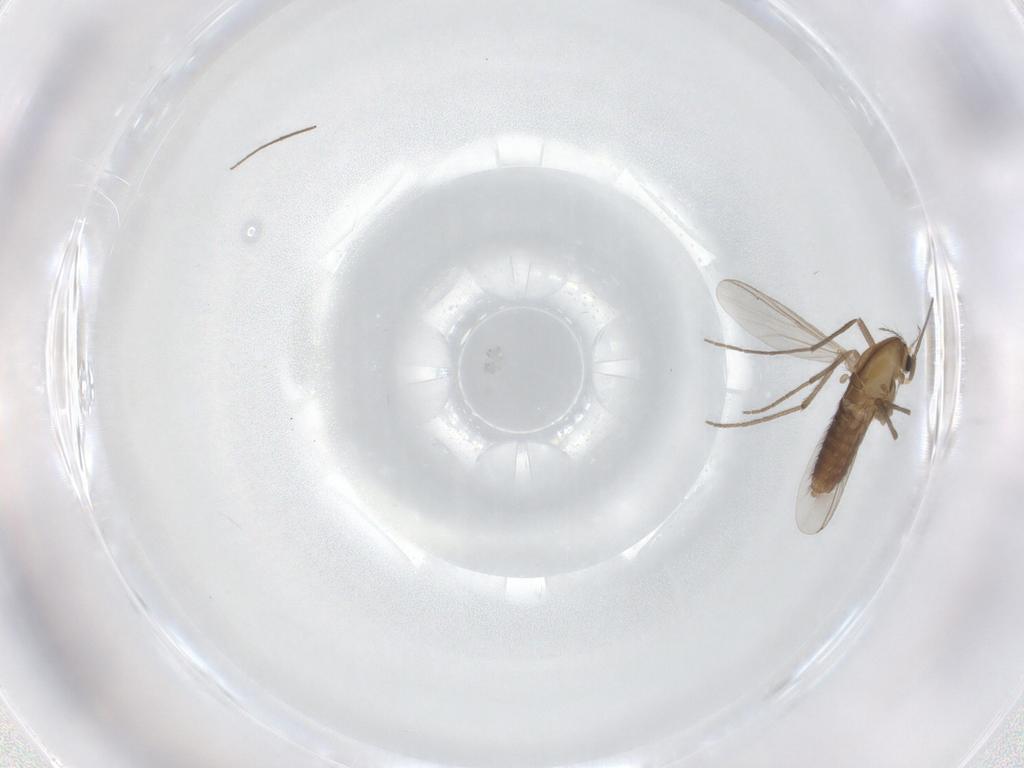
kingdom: Animalia
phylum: Arthropoda
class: Insecta
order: Diptera
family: Chironomidae
